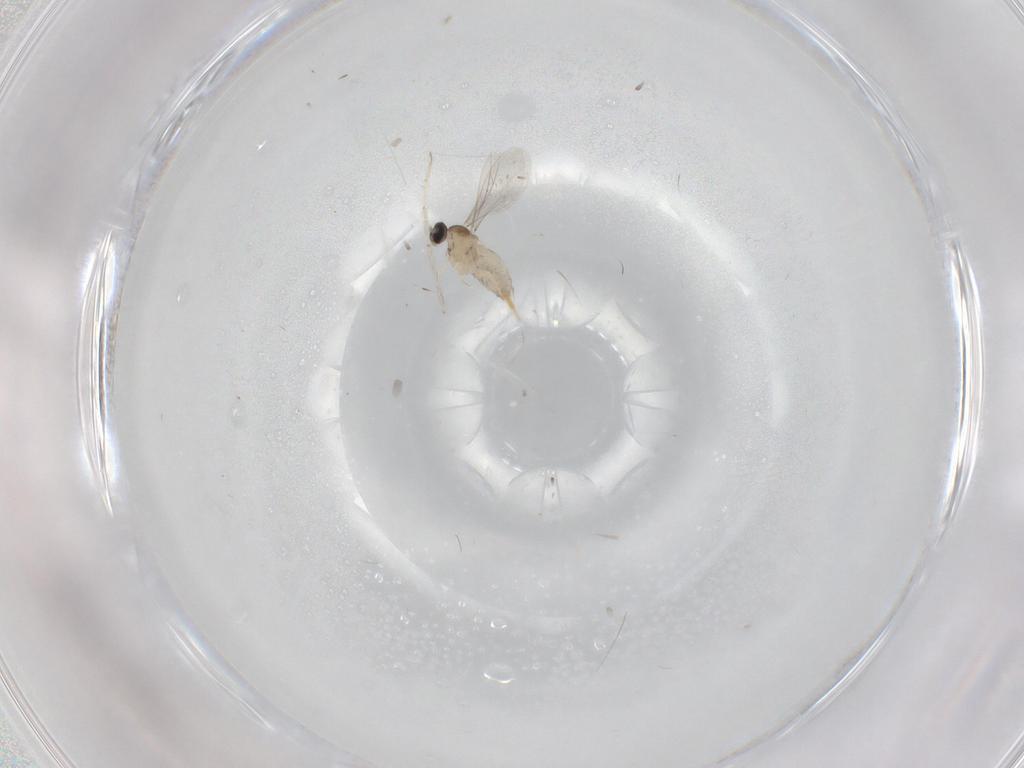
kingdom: Animalia
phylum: Arthropoda
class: Insecta
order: Diptera
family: Cecidomyiidae
